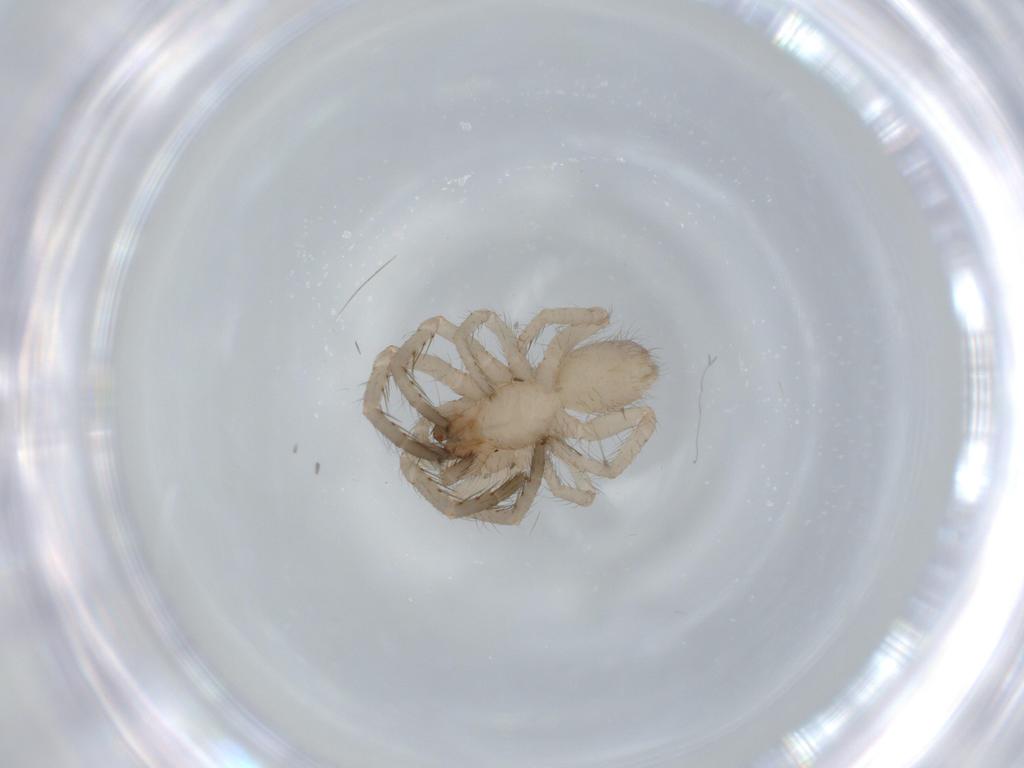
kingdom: Animalia
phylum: Arthropoda
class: Arachnida
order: Araneae
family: Segestriidae
